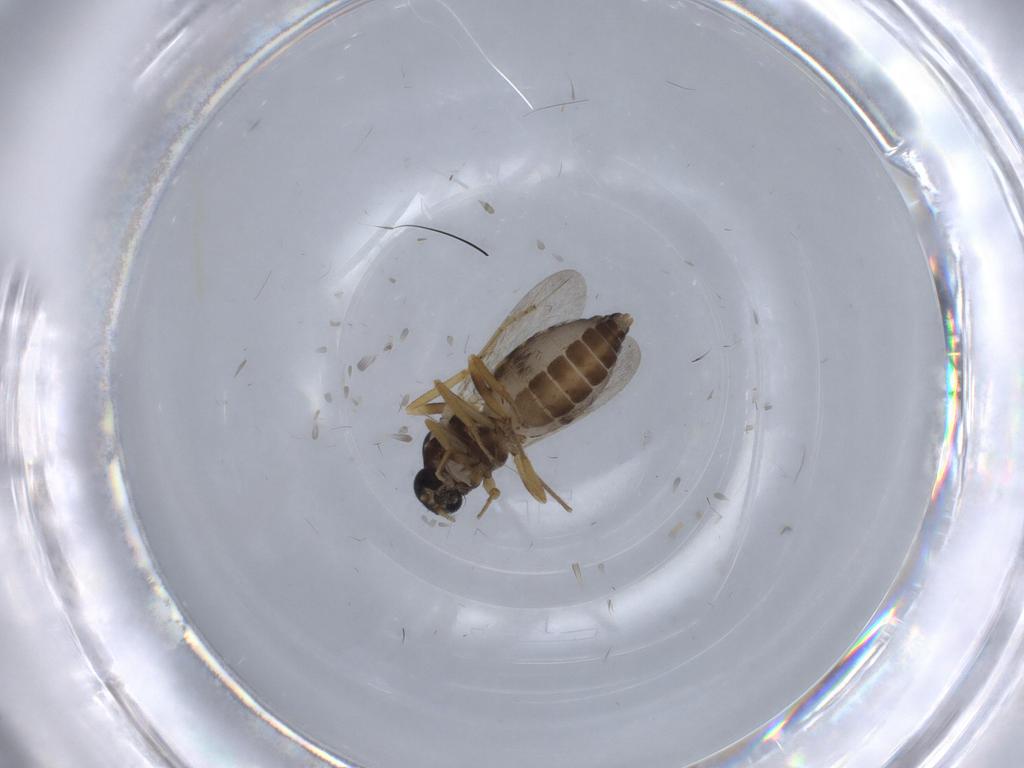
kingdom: Animalia
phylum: Arthropoda
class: Insecta
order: Diptera
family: Ceratopogonidae
